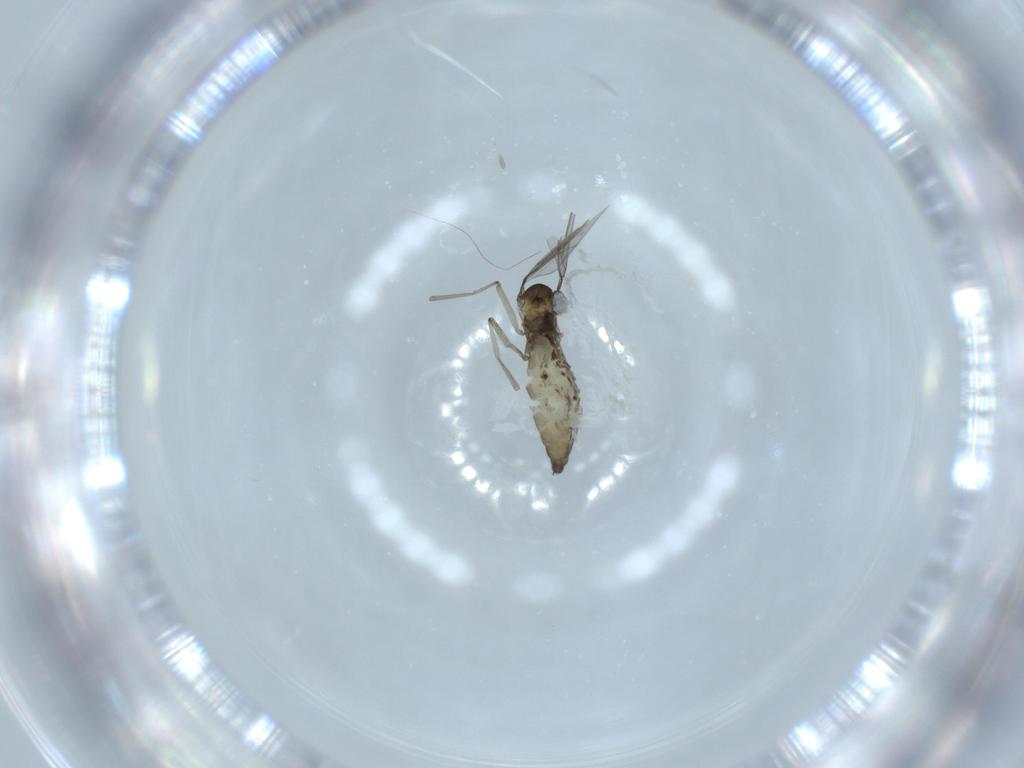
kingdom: Animalia
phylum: Arthropoda
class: Insecta
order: Diptera
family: Cecidomyiidae
